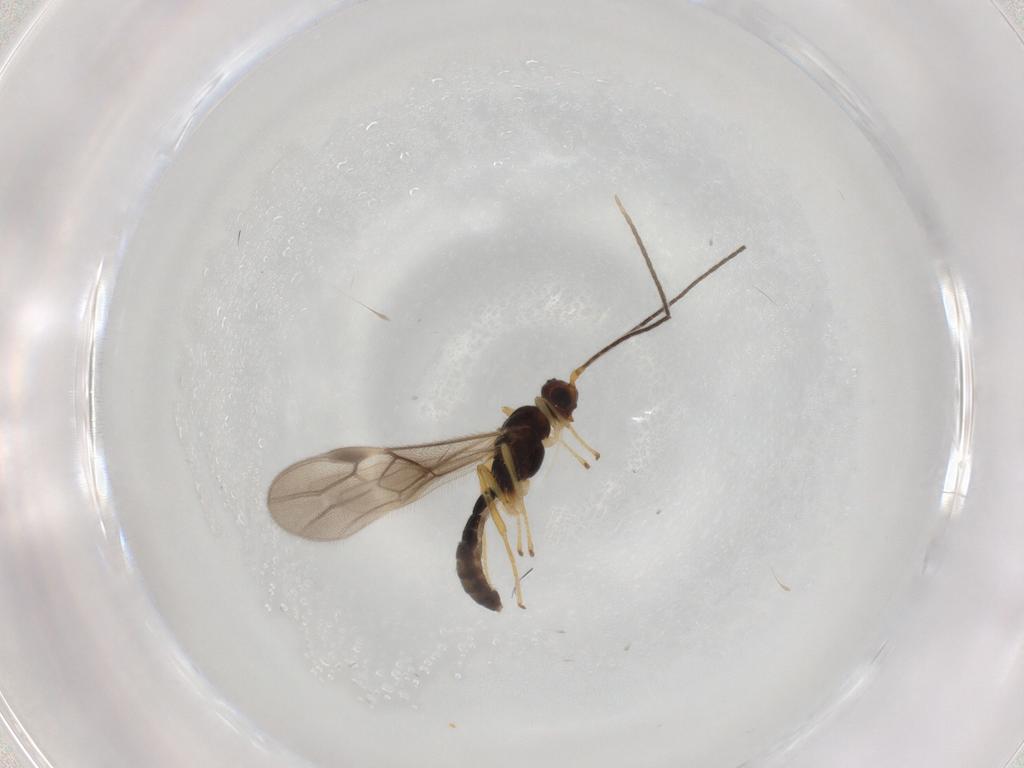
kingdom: Animalia
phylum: Arthropoda
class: Insecta
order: Hymenoptera
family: Braconidae
